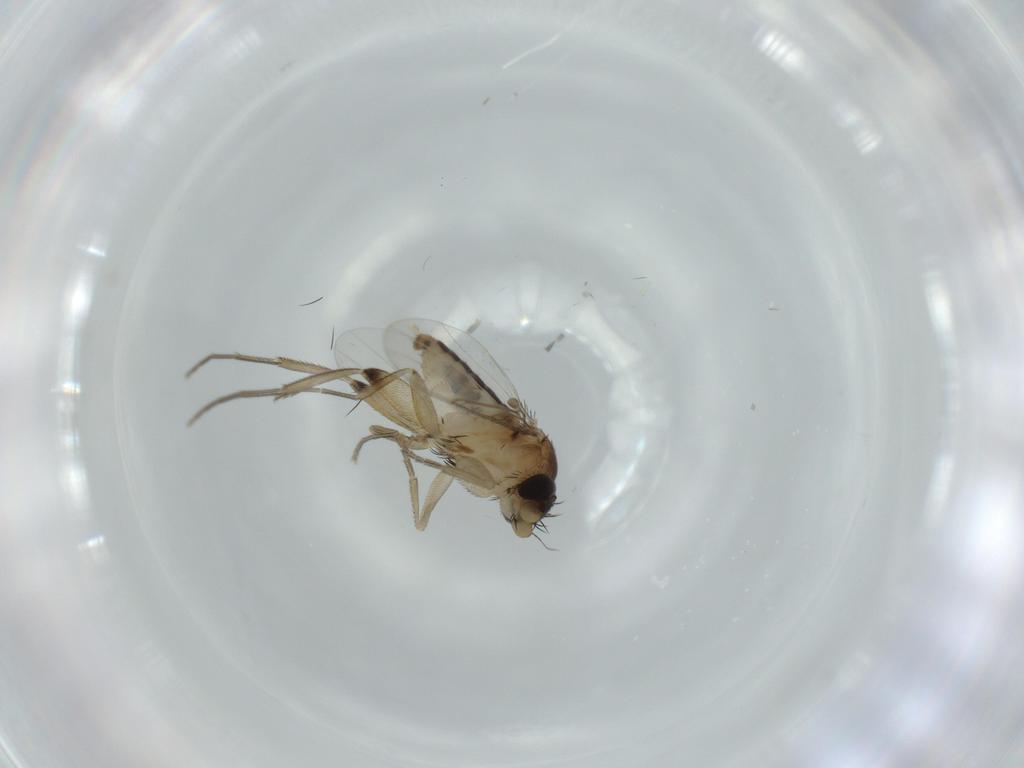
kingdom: Animalia
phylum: Arthropoda
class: Insecta
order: Diptera
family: Phoridae
